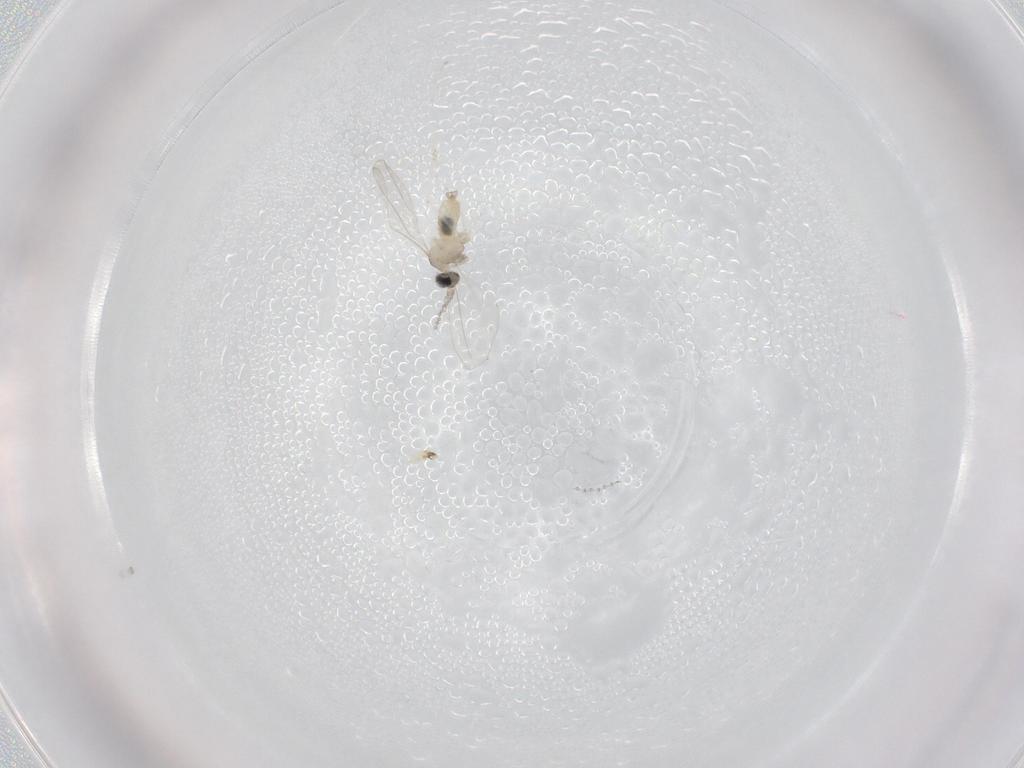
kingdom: Animalia
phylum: Arthropoda
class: Insecta
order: Diptera
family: Cecidomyiidae
